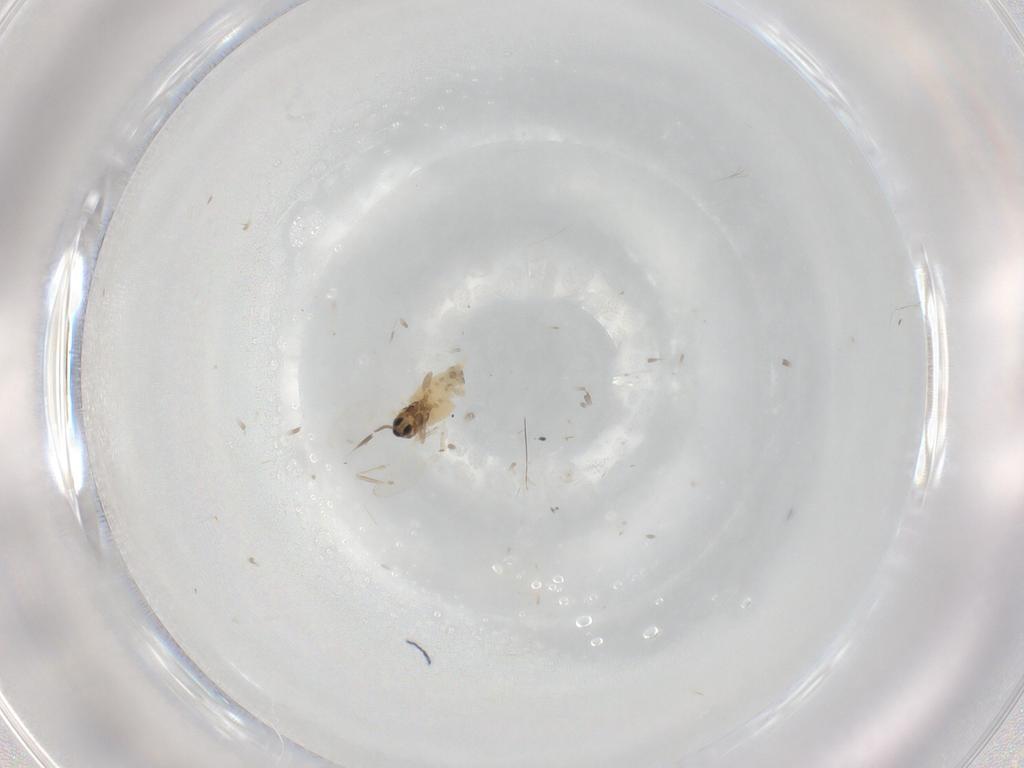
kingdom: Animalia
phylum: Arthropoda
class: Insecta
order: Diptera
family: Cecidomyiidae
